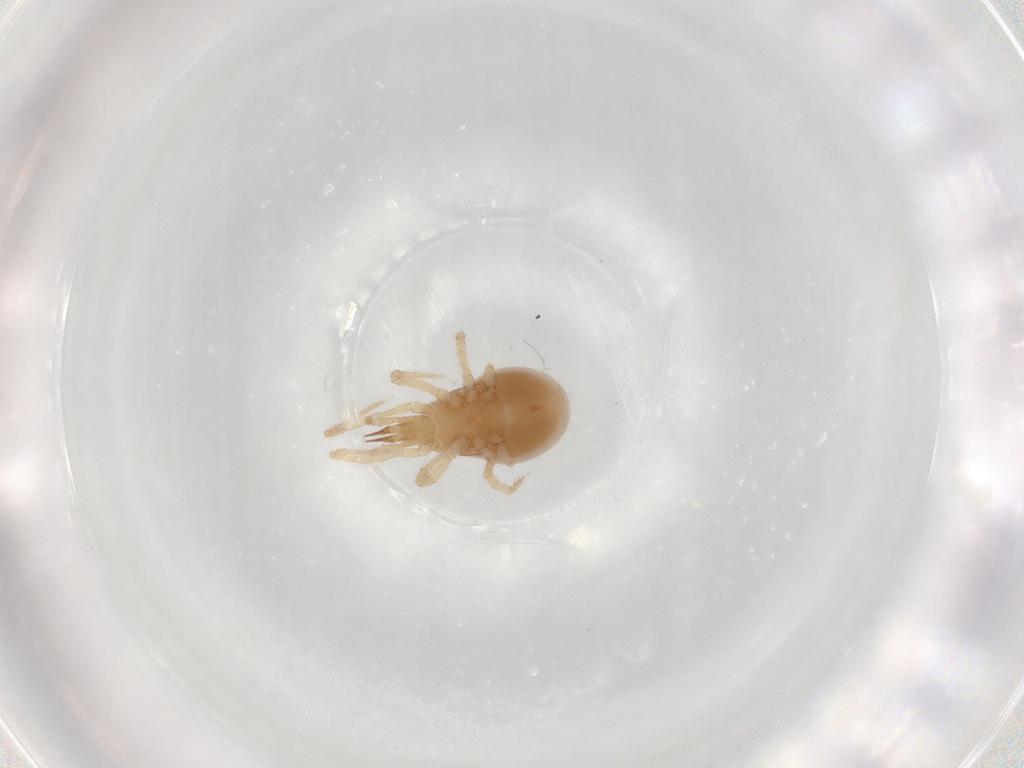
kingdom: Animalia
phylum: Arthropoda
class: Arachnida
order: Mesostigmata
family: Parasitidae
